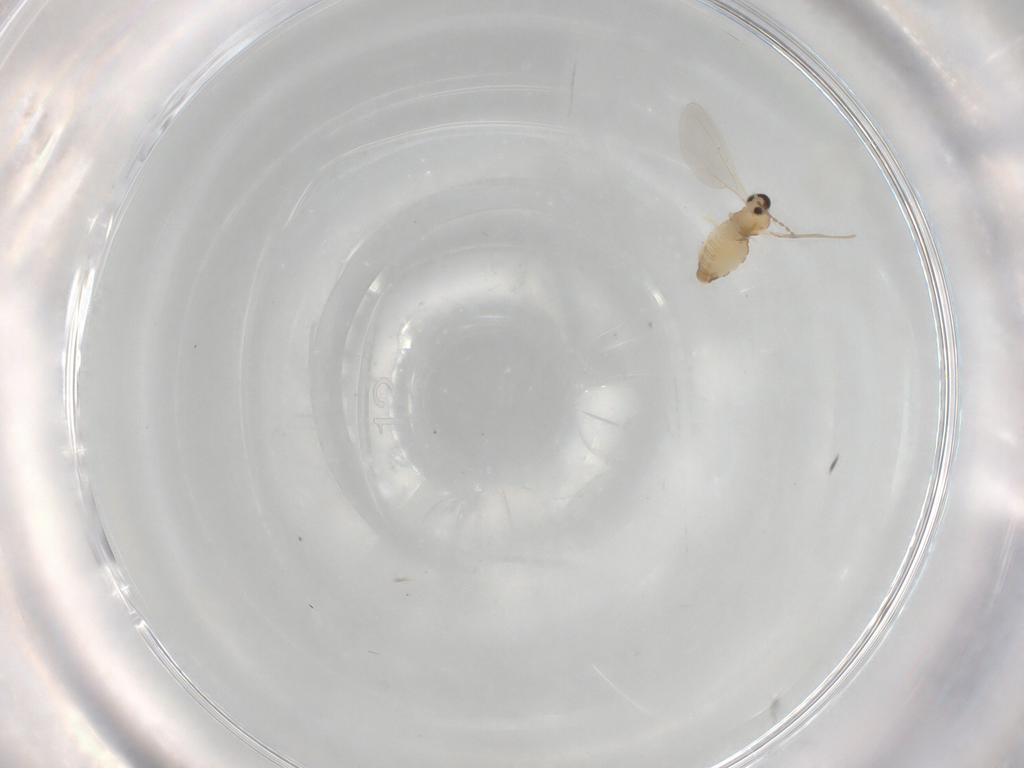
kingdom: Animalia
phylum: Arthropoda
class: Insecta
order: Diptera
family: Cecidomyiidae
